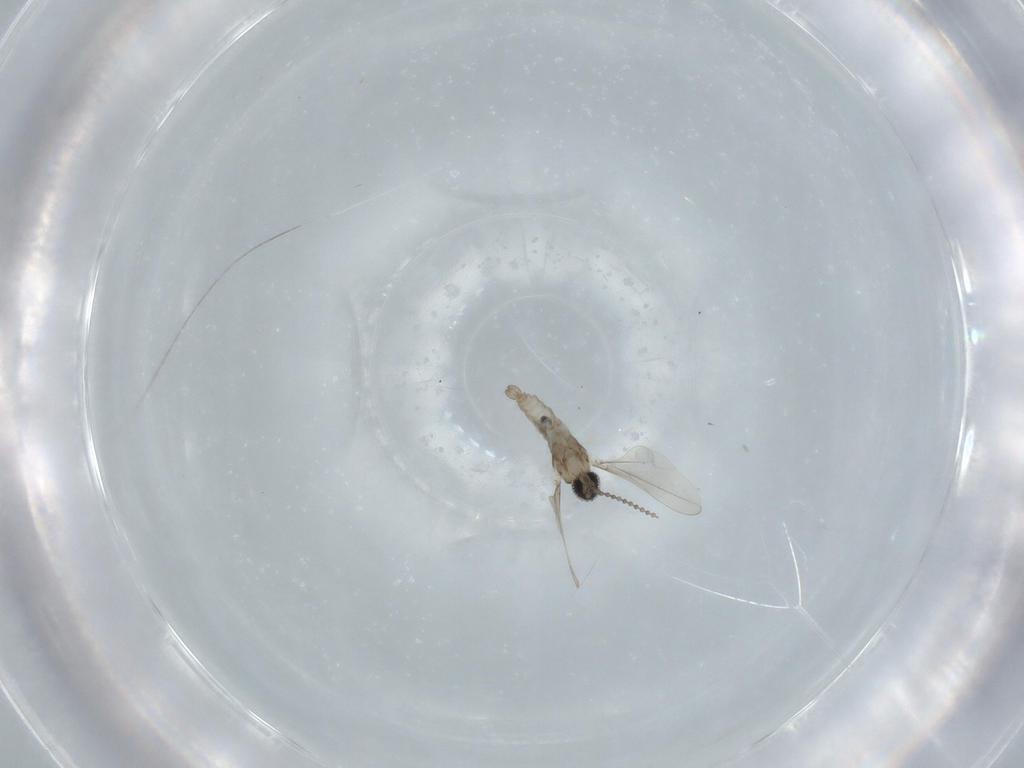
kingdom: Animalia
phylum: Arthropoda
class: Insecta
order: Diptera
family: Cecidomyiidae
